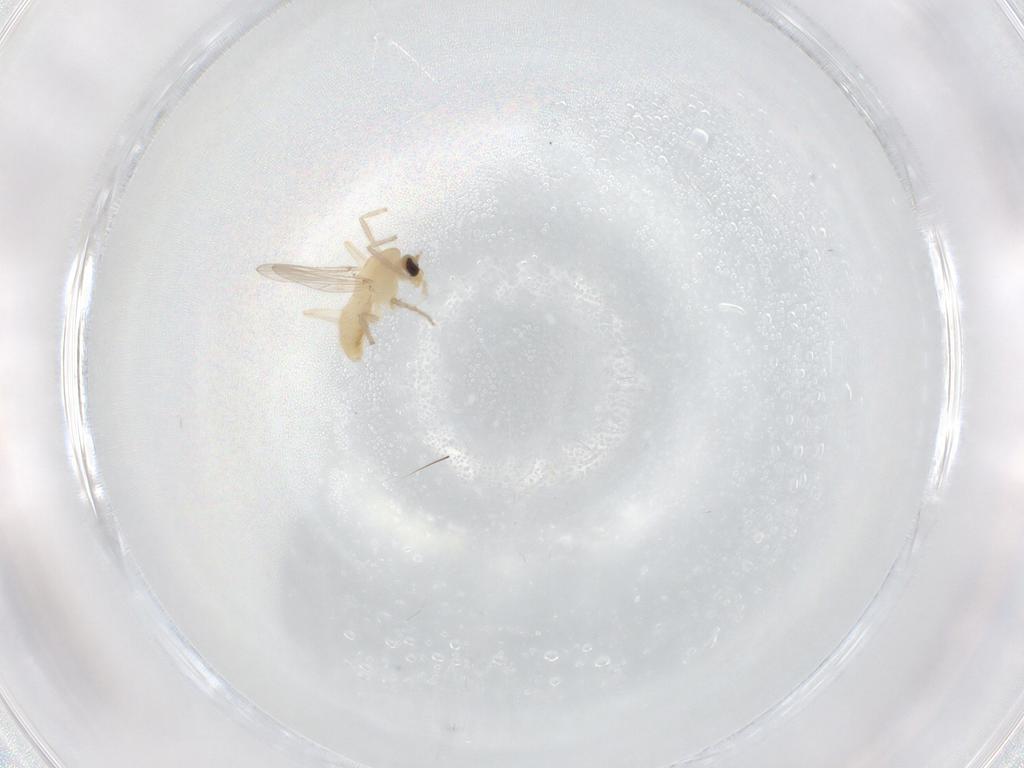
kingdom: Animalia
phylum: Arthropoda
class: Insecta
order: Diptera
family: Chironomidae
